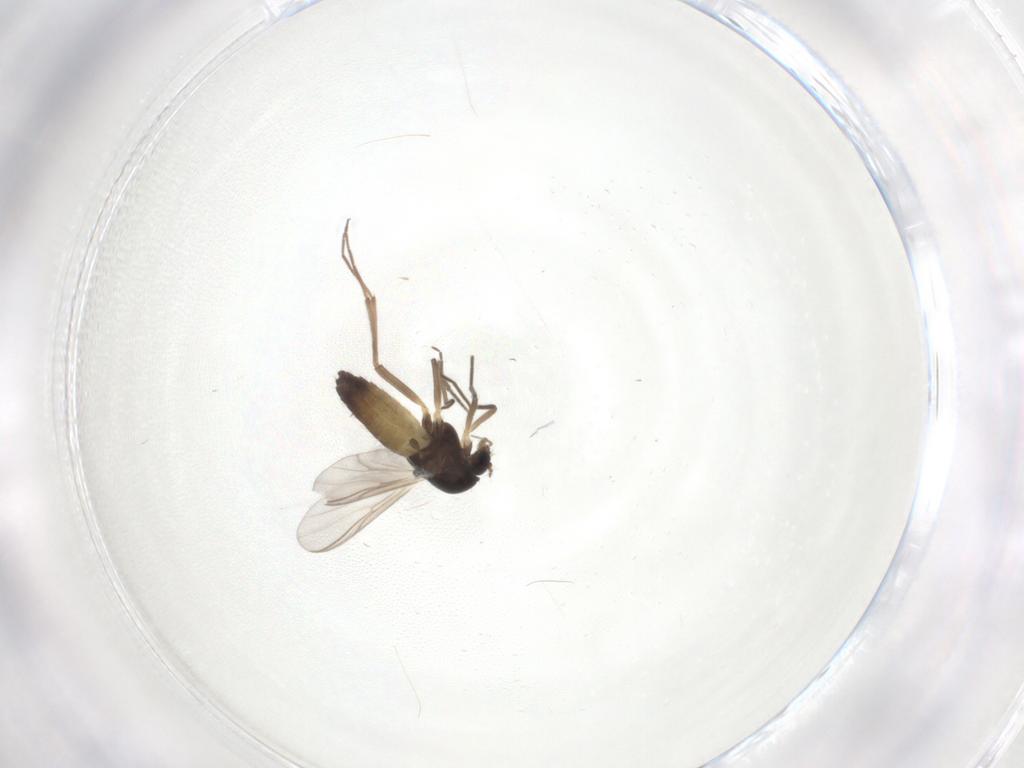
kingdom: Animalia
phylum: Arthropoda
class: Insecta
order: Diptera
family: Chironomidae
